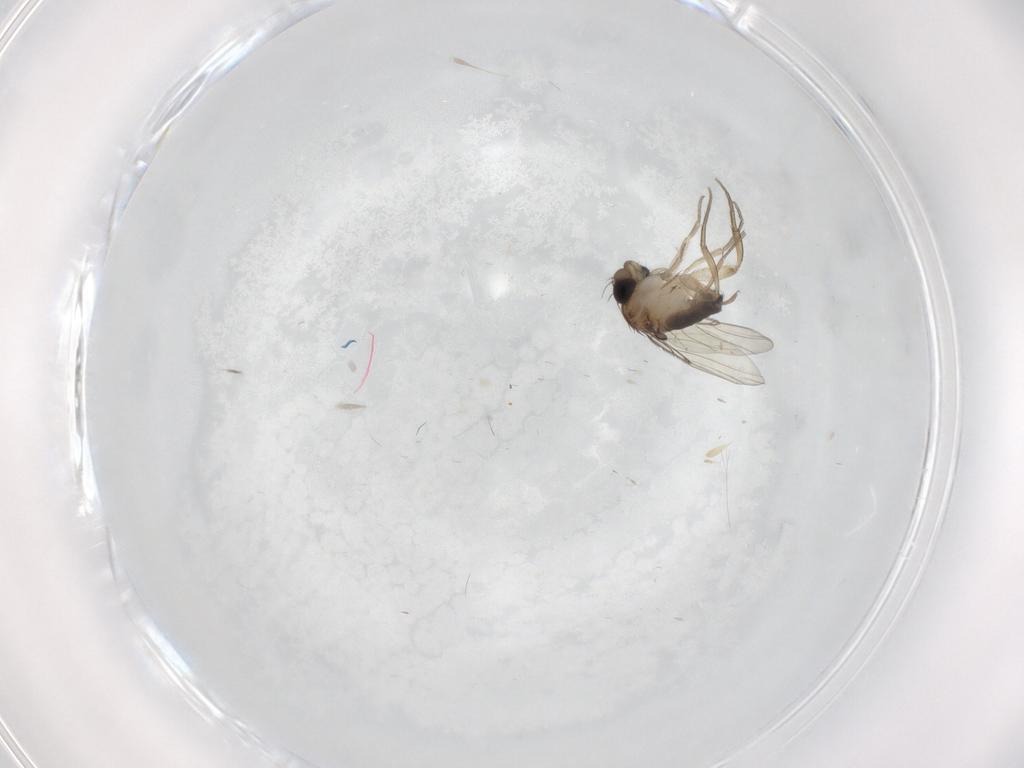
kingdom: Animalia
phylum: Arthropoda
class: Insecta
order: Diptera
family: Phoridae
